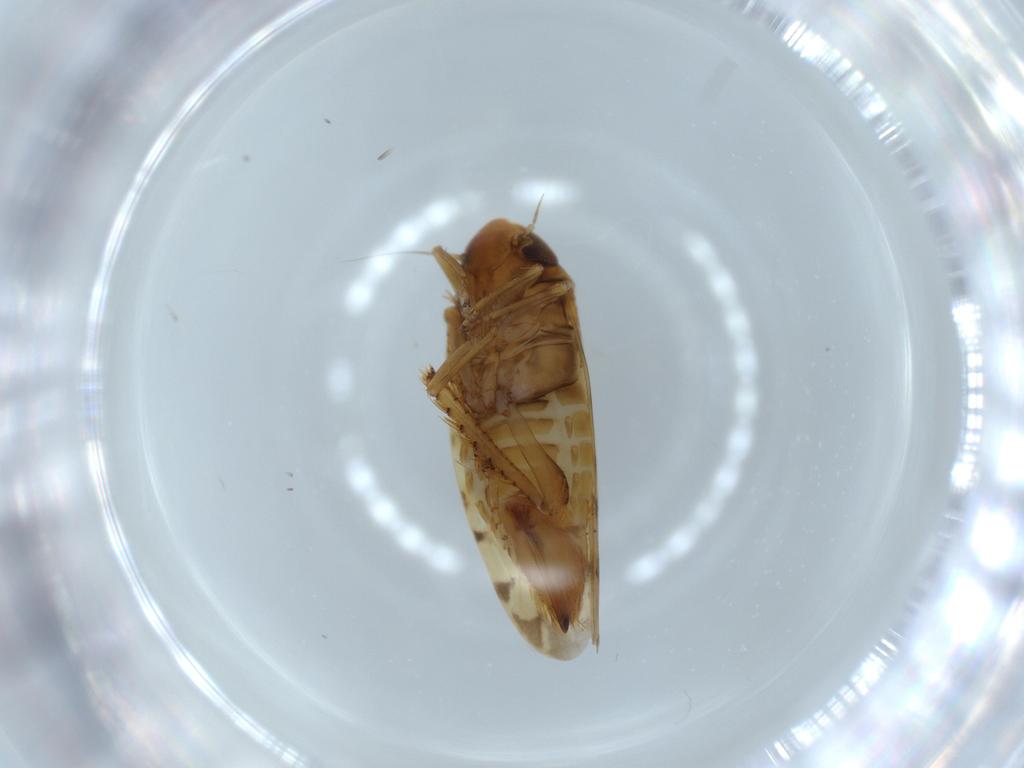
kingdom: Animalia
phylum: Arthropoda
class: Insecta
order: Hemiptera
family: Cicadellidae
